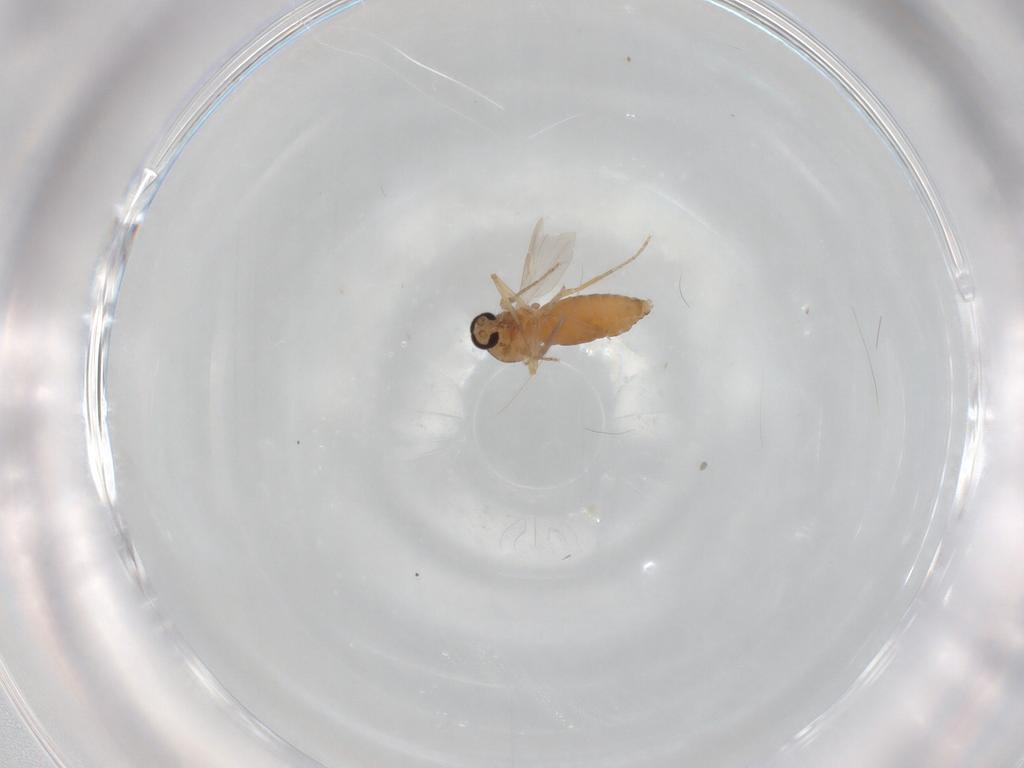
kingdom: Animalia
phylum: Arthropoda
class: Insecta
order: Diptera
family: Ceratopogonidae
